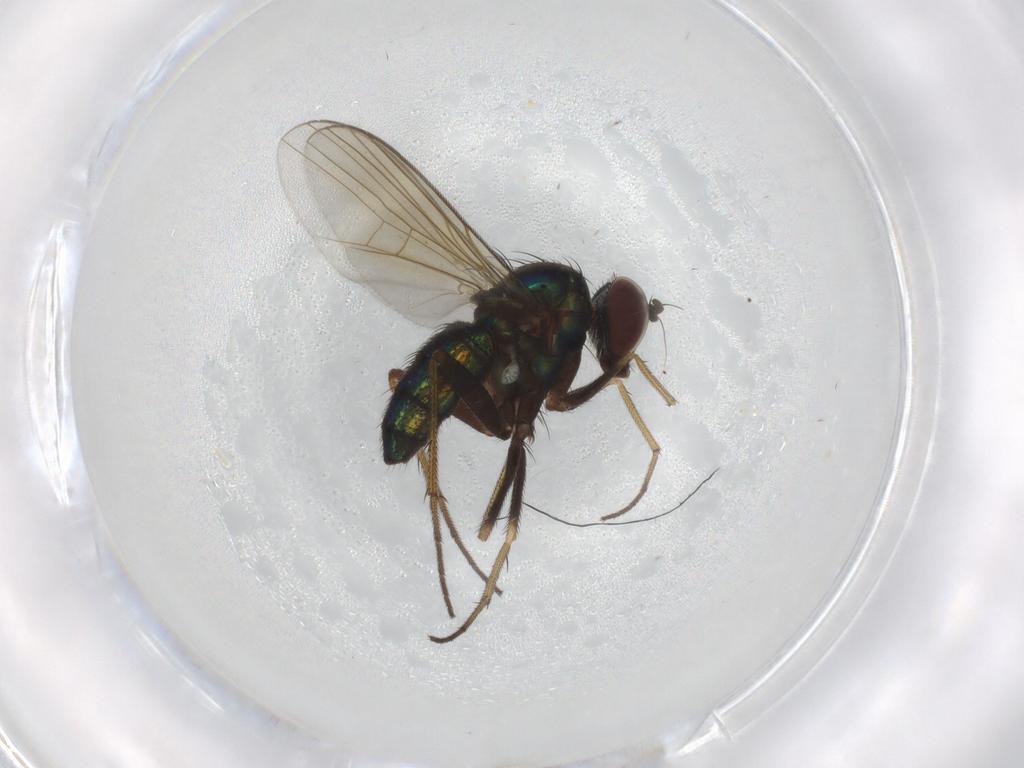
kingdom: Animalia
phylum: Arthropoda
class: Insecta
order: Diptera
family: Dolichopodidae
